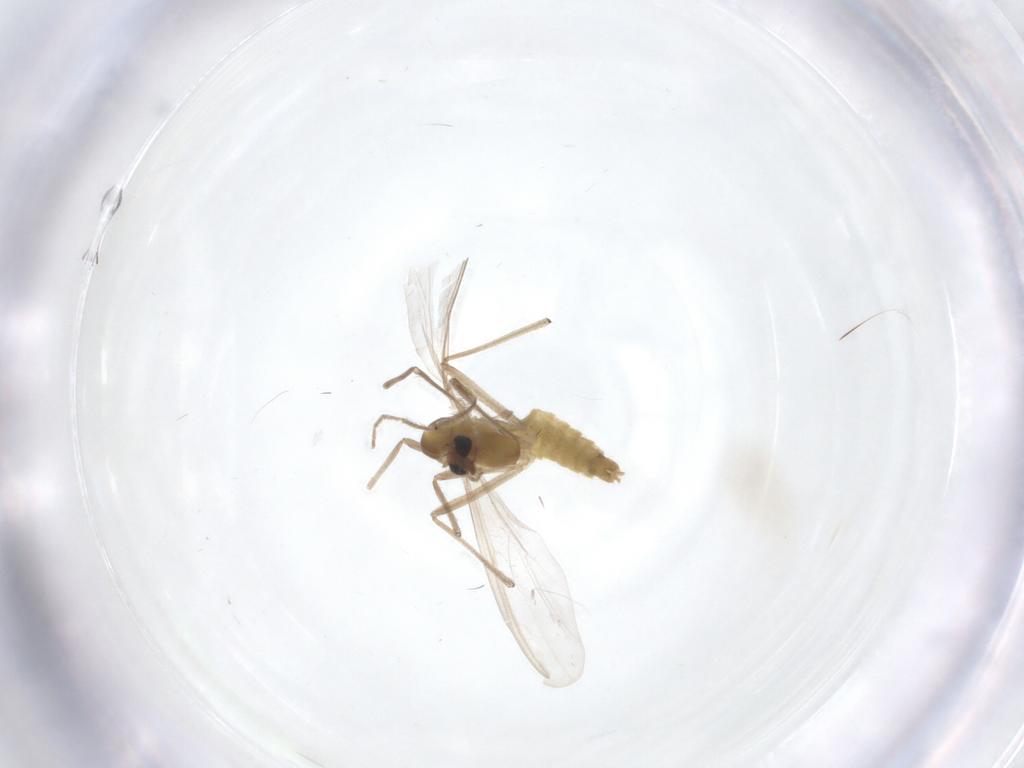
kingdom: Animalia
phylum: Arthropoda
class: Insecta
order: Diptera
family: Chironomidae
